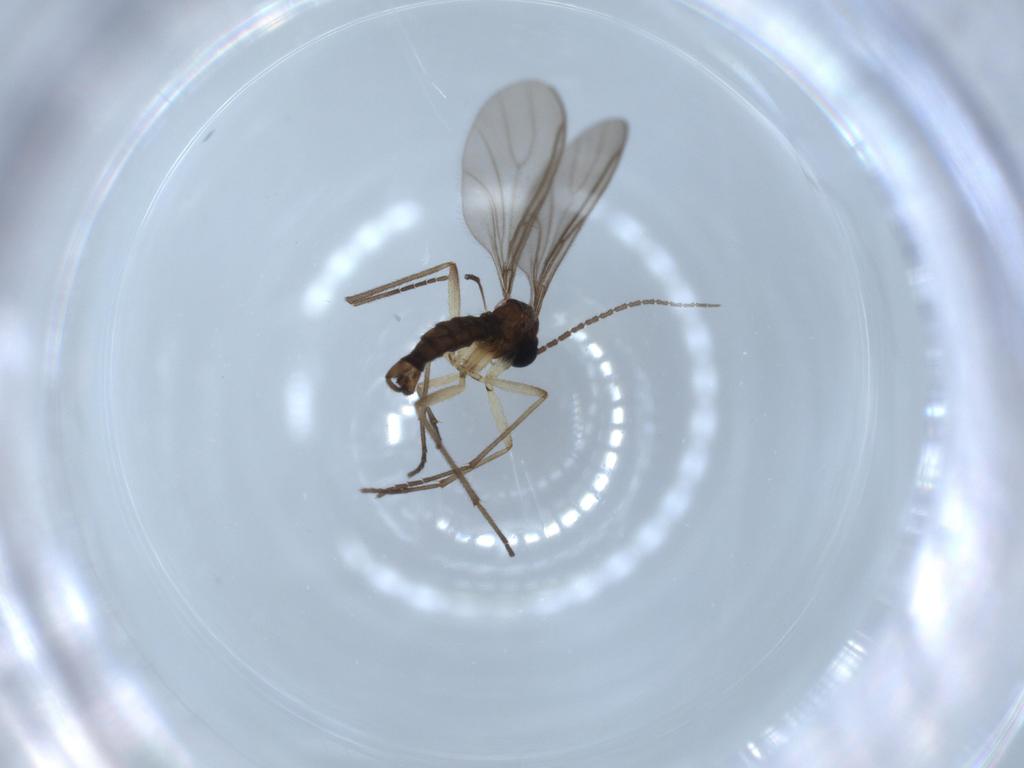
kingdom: Animalia
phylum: Arthropoda
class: Insecta
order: Diptera
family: Sciaridae
